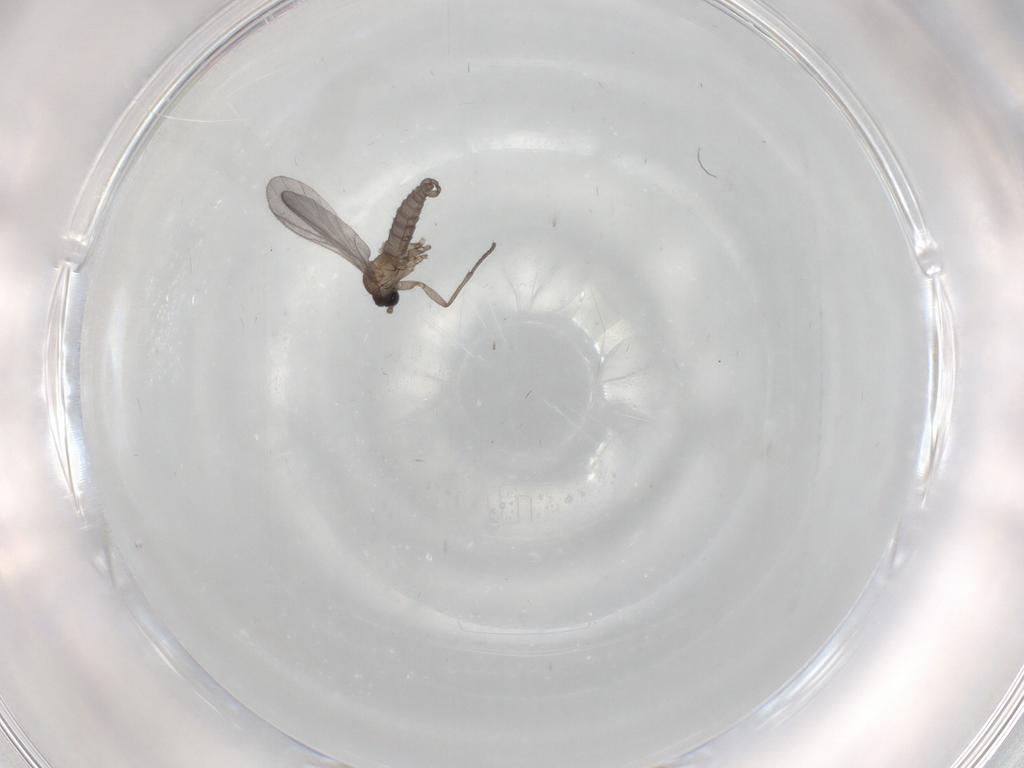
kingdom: Animalia
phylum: Arthropoda
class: Insecta
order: Diptera
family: Sciaridae
